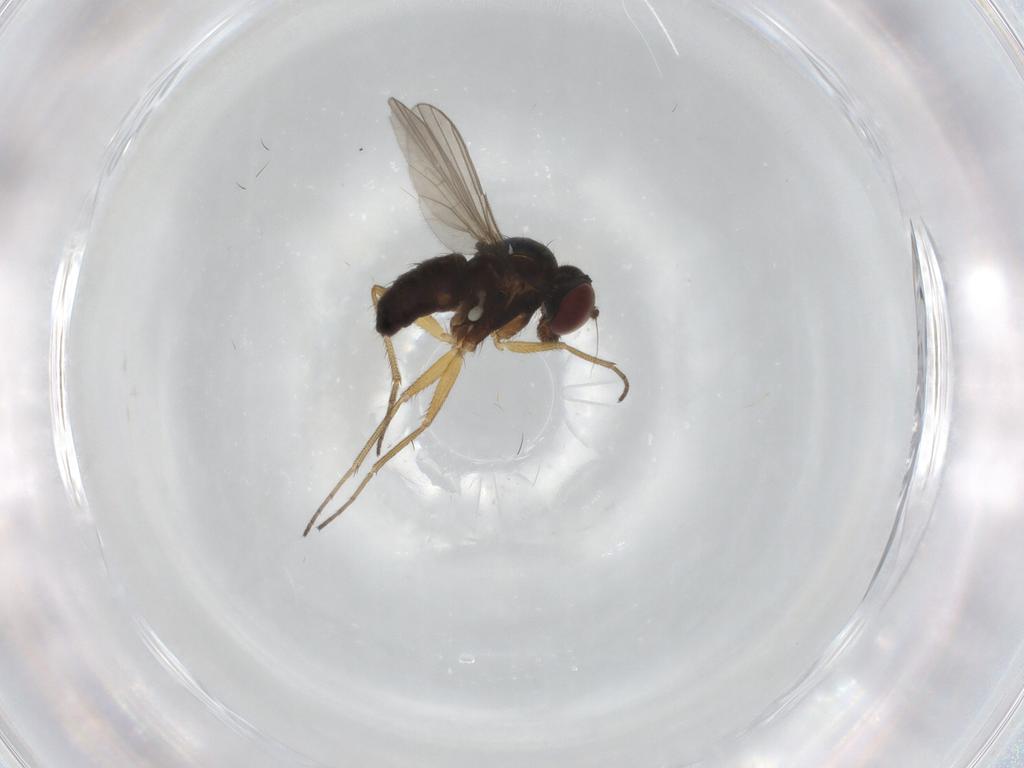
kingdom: Animalia
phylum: Arthropoda
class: Insecta
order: Diptera
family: Dolichopodidae
